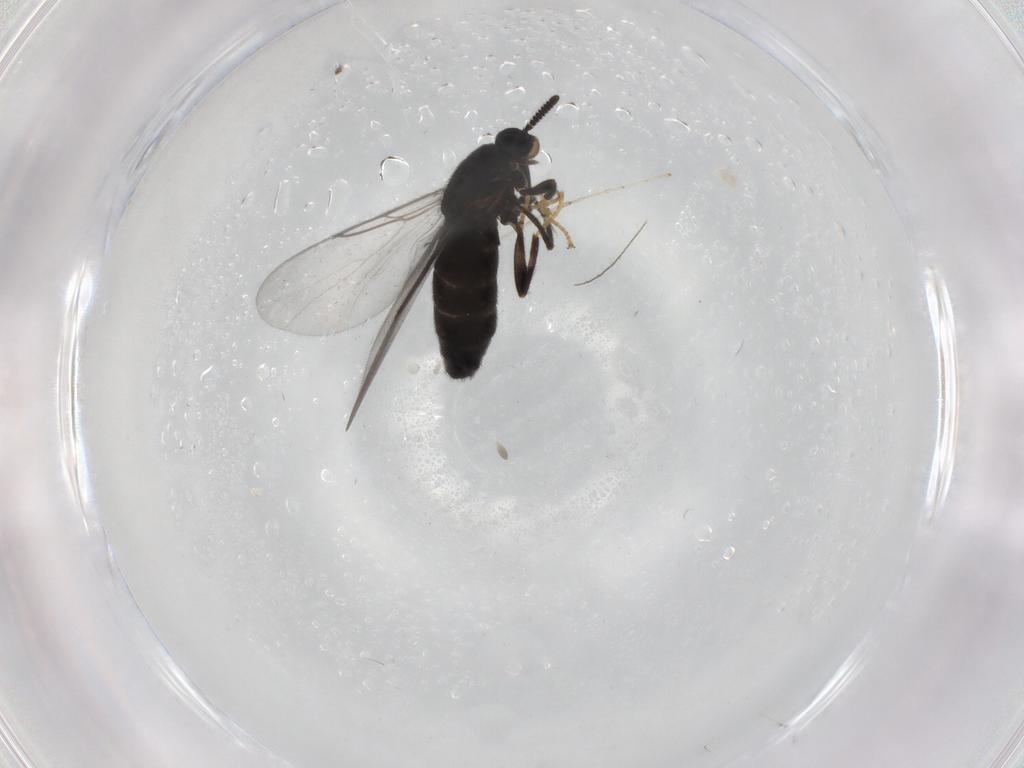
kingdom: Animalia
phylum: Arthropoda
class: Insecta
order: Diptera
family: Scatopsidae
